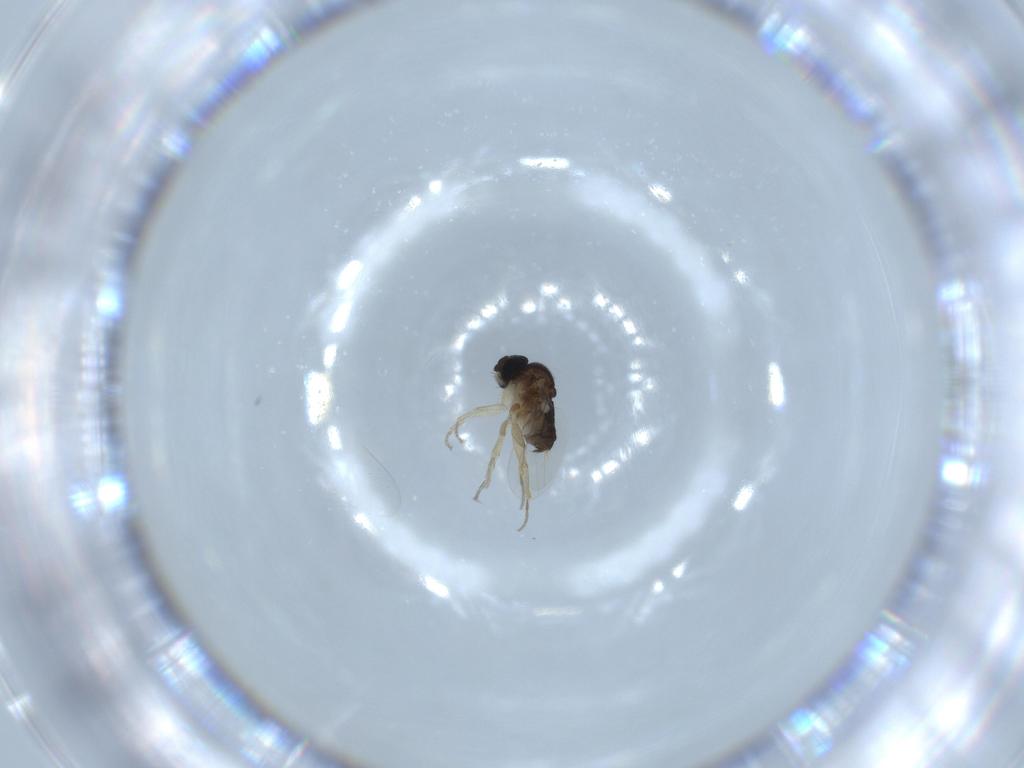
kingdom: Animalia
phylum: Arthropoda
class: Insecta
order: Diptera
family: Phoridae
